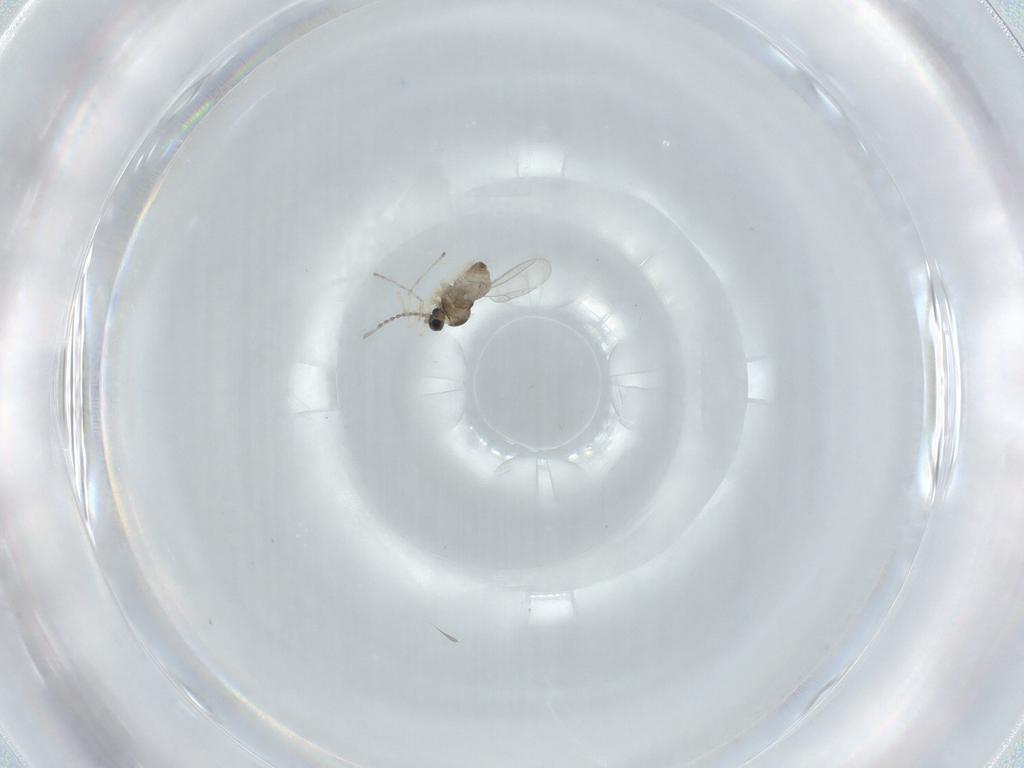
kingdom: Animalia
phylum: Arthropoda
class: Insecta
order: Diptera
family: Cecidomyiidae
